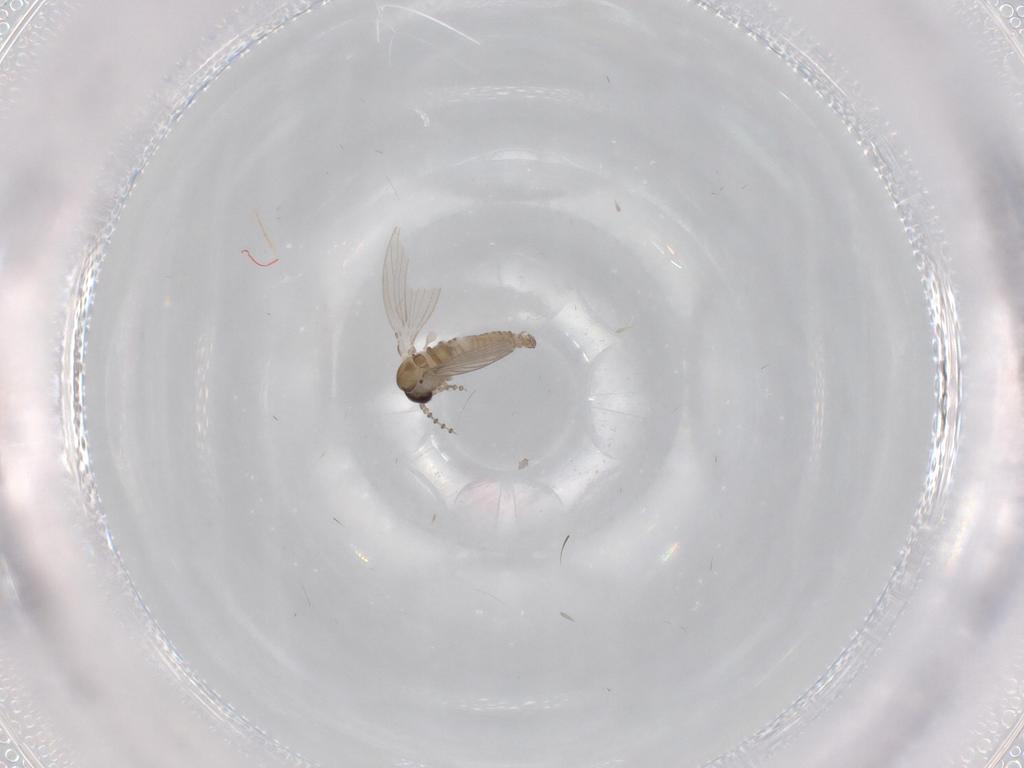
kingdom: Animalia
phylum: Arthropoda
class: Insecta
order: Diptera
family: Psychodidae
